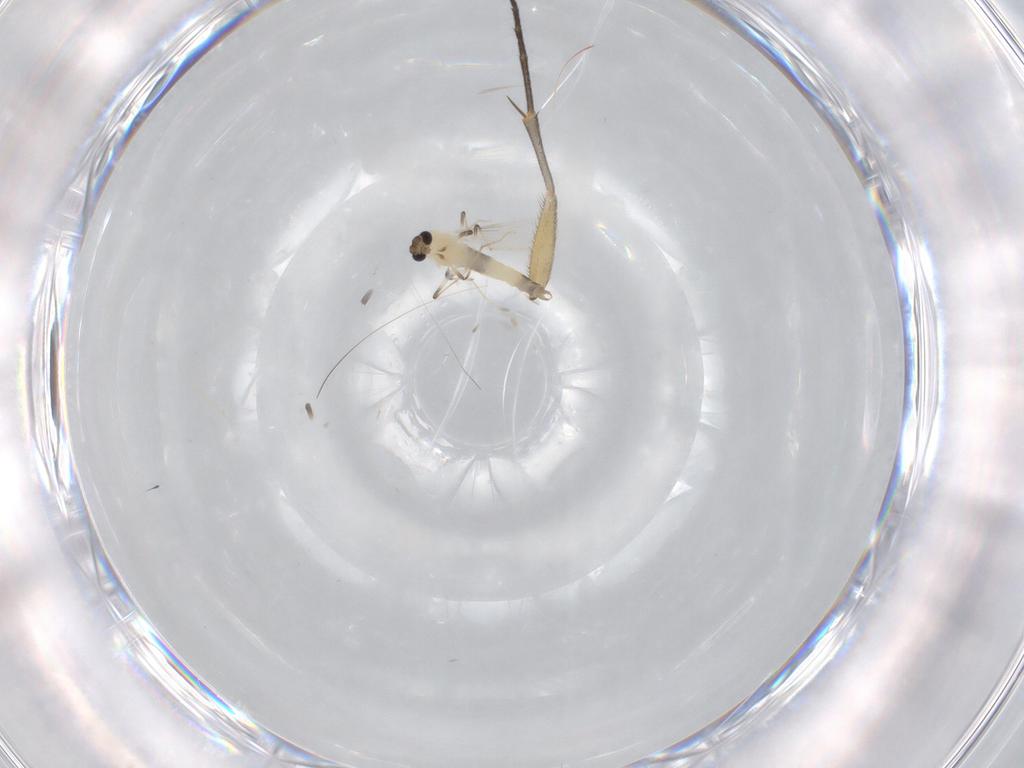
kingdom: Animalia
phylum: Arthropoda
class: Insecta
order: Diptera
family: Chironomidae
